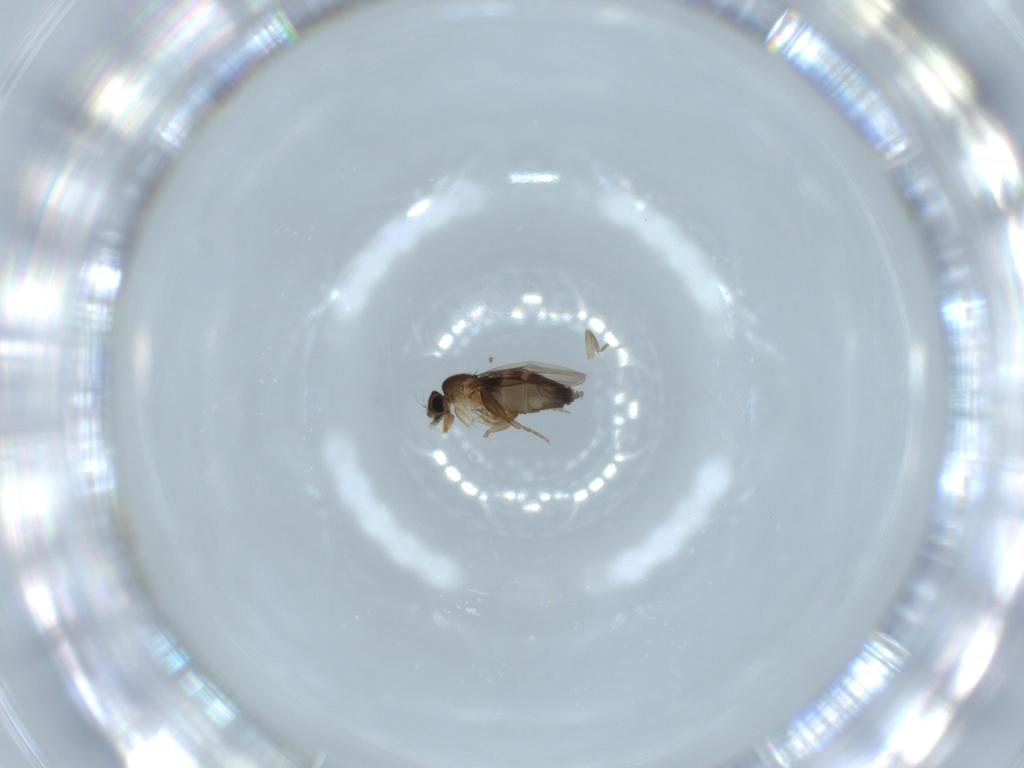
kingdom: Animalia
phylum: Arthropoda
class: Insecta
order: Diptera
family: Phoridae
